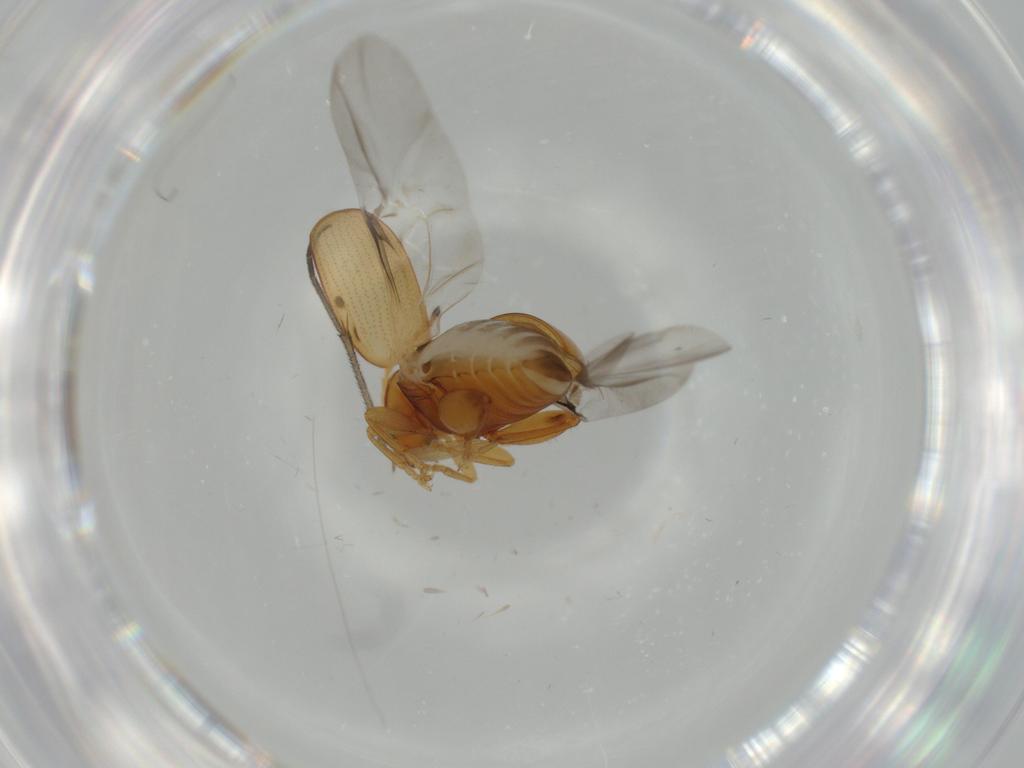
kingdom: Animalia
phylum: Arthropoda
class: Insecta
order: Coleoptera
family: Chrysomelidae
